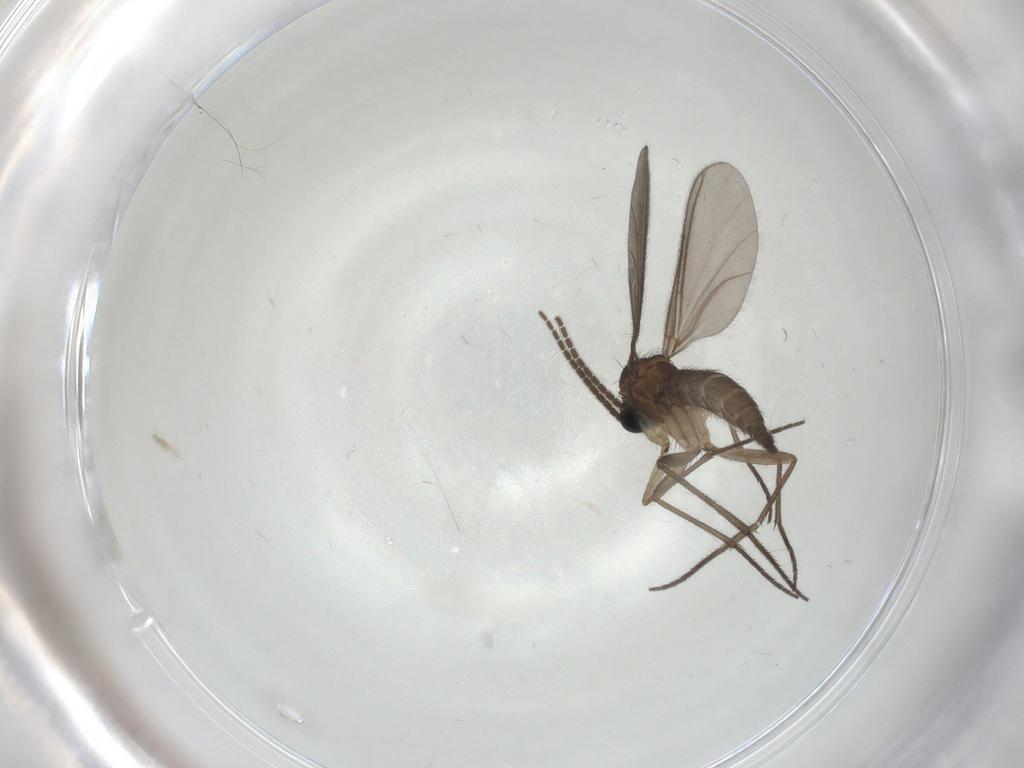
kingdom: Animalia
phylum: Arthropoda
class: Insecta
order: Diptera
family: Sciaridae
